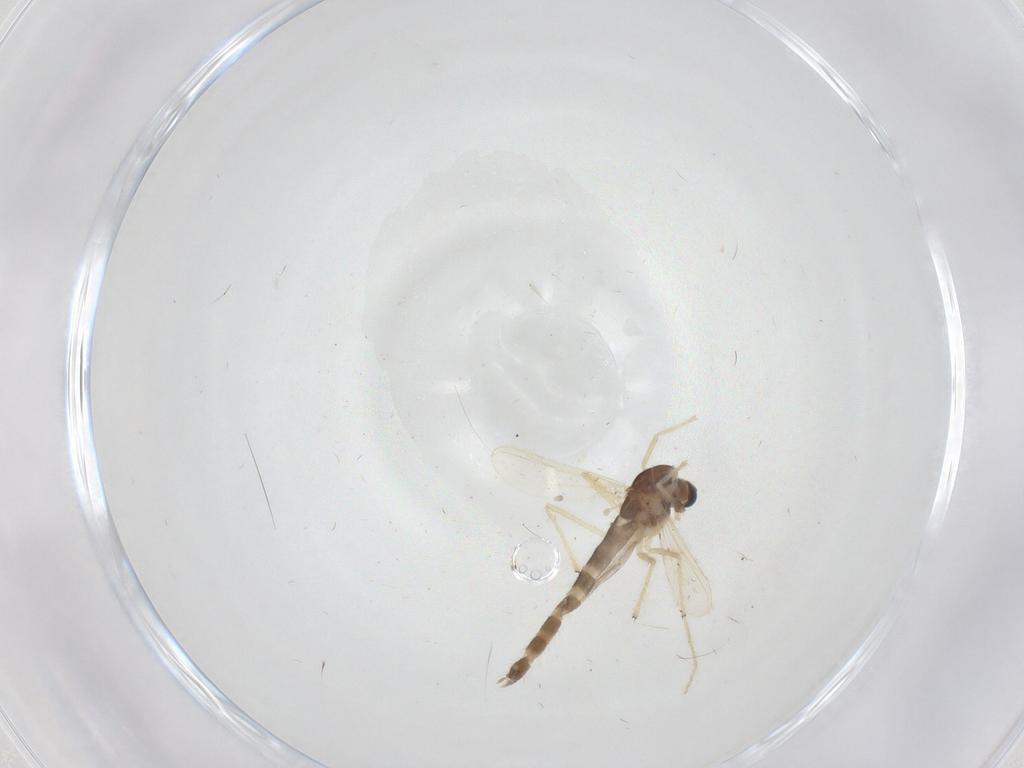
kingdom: Animalia
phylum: Arthropoda
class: Insecta
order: Diptera
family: Chironomidae
